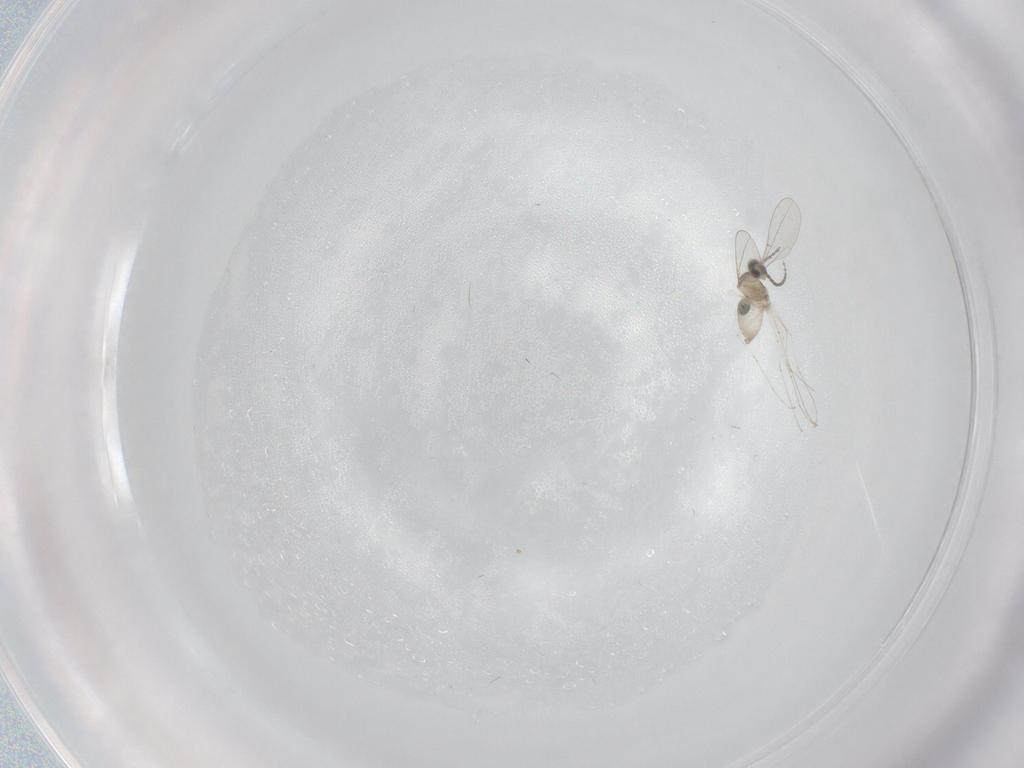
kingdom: Animalia
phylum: Arthropoda
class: Insecta
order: Diptera
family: Cecidomyiidae
